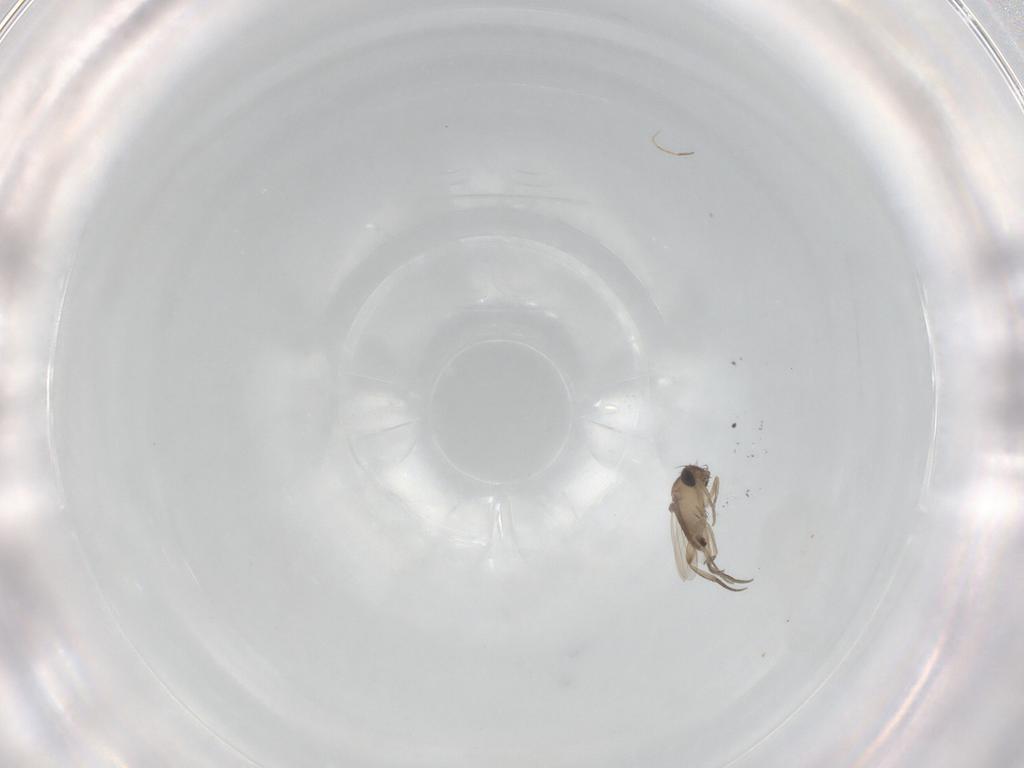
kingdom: Animalia
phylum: Arthropoda
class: Insecta
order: Diptera
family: Phoridae
